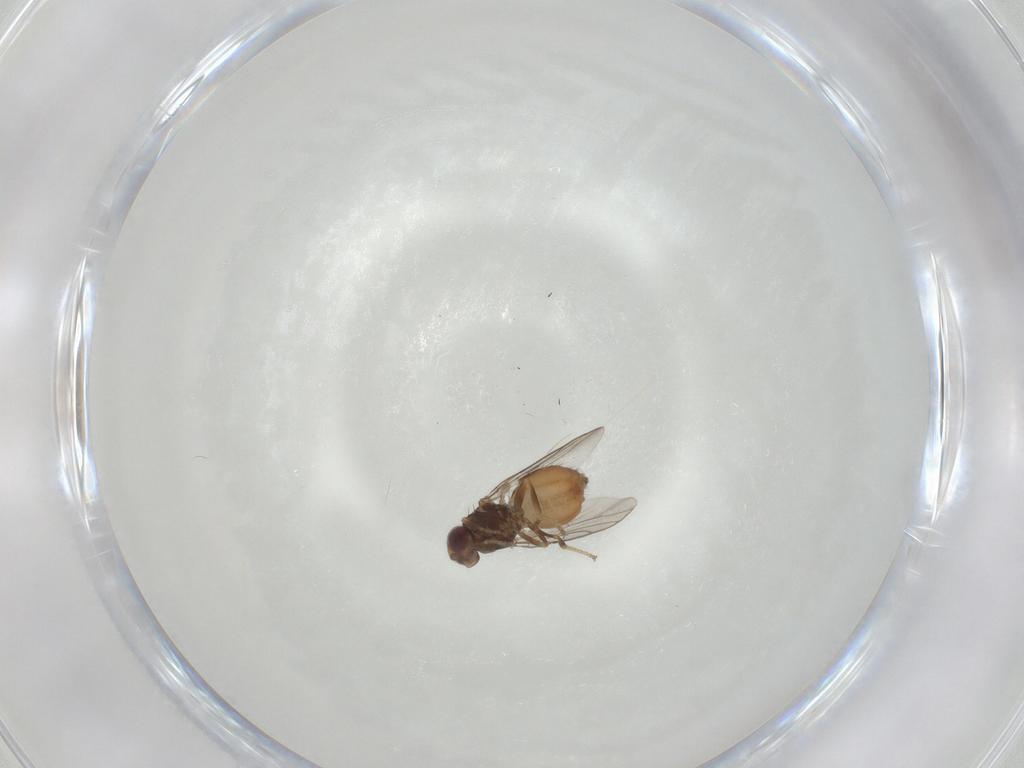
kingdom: Animalia
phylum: Arthropoda
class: Insecta
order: Diptera
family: Chloropidae
